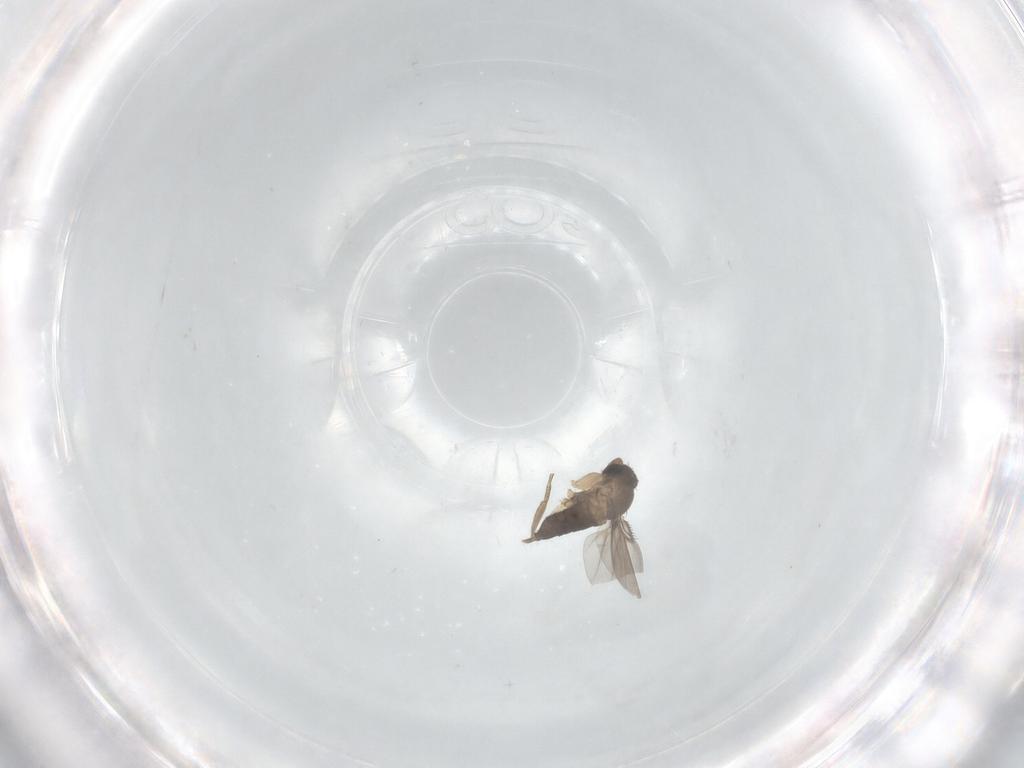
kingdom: Animalia
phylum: Arthropoda
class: Insecta
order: Diptera
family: Phoridae
